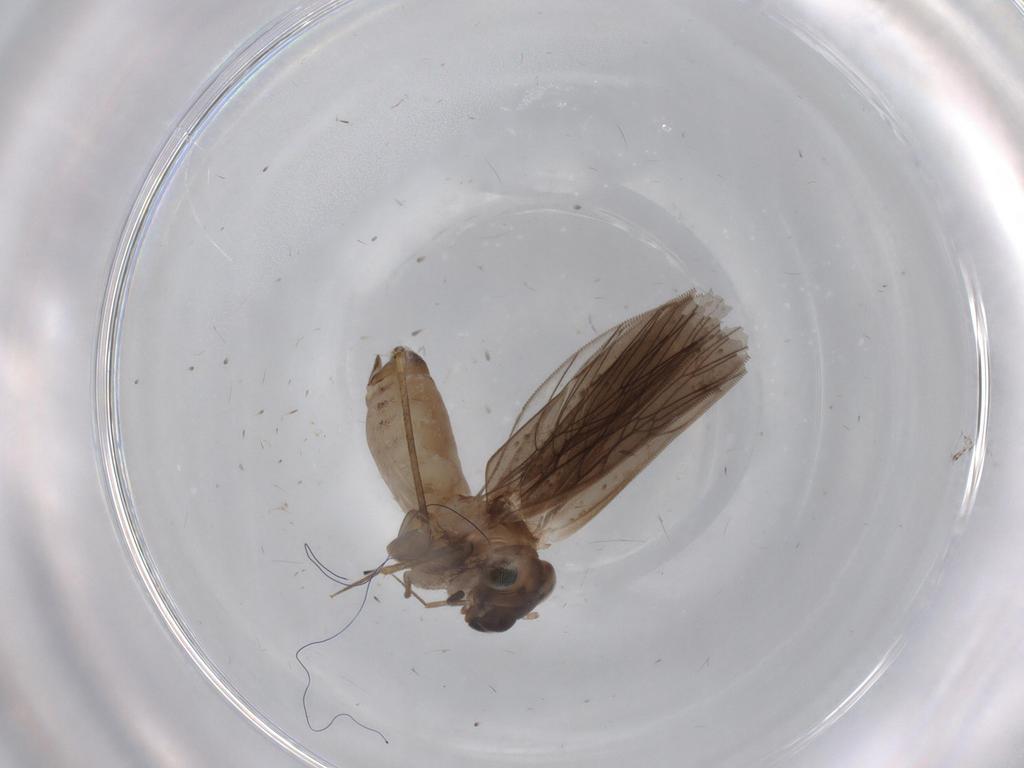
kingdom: Animalia
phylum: Arthropoda
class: Insecta
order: Psocodea
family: Lepidopsocidae
